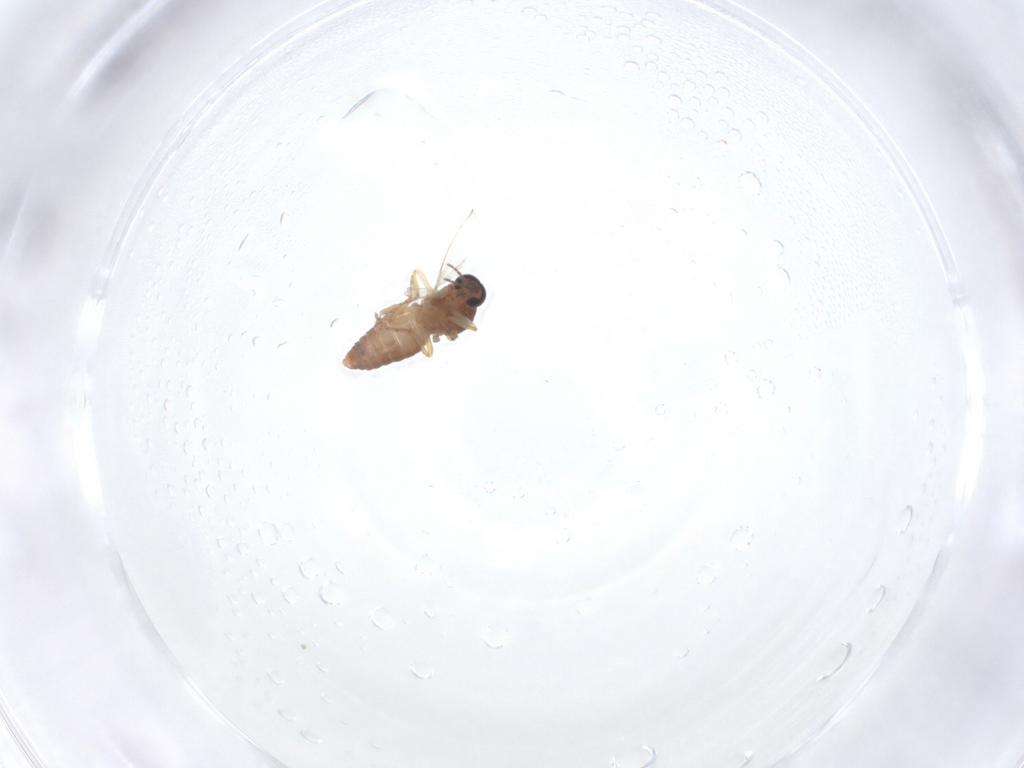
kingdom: Animalia
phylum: Arthropoda
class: Insecta
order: Diptera
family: Ceratopogonidae
